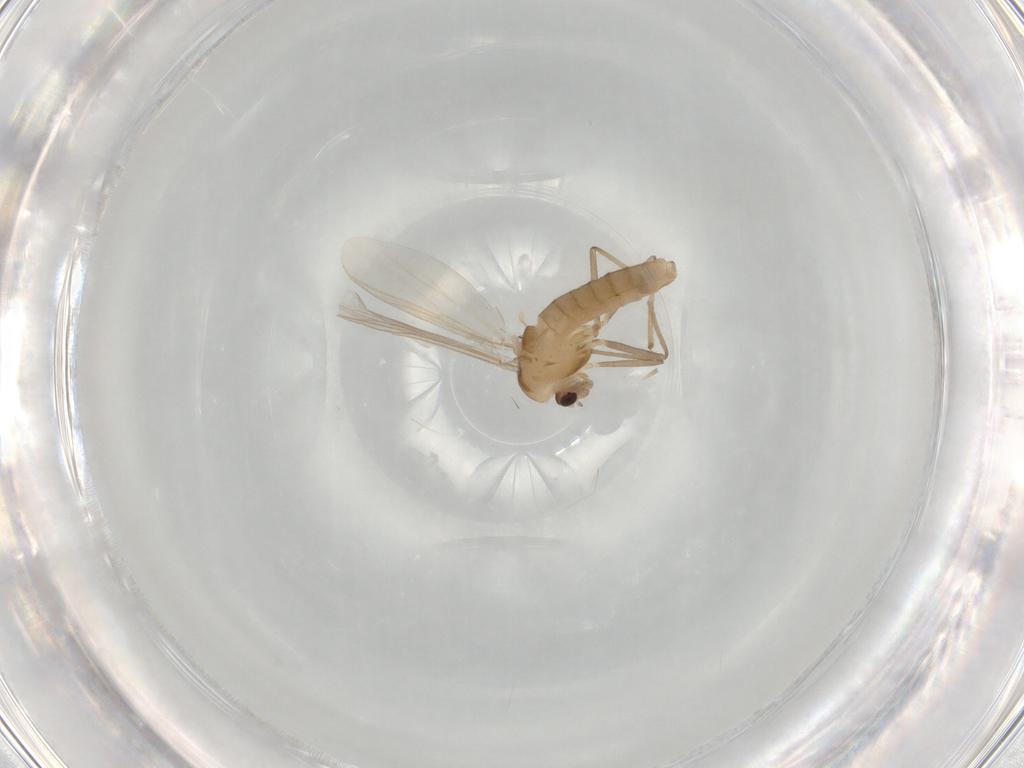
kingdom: Animalia
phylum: Arthropoda
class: Insecta
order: Diptera
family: Chironomidae
